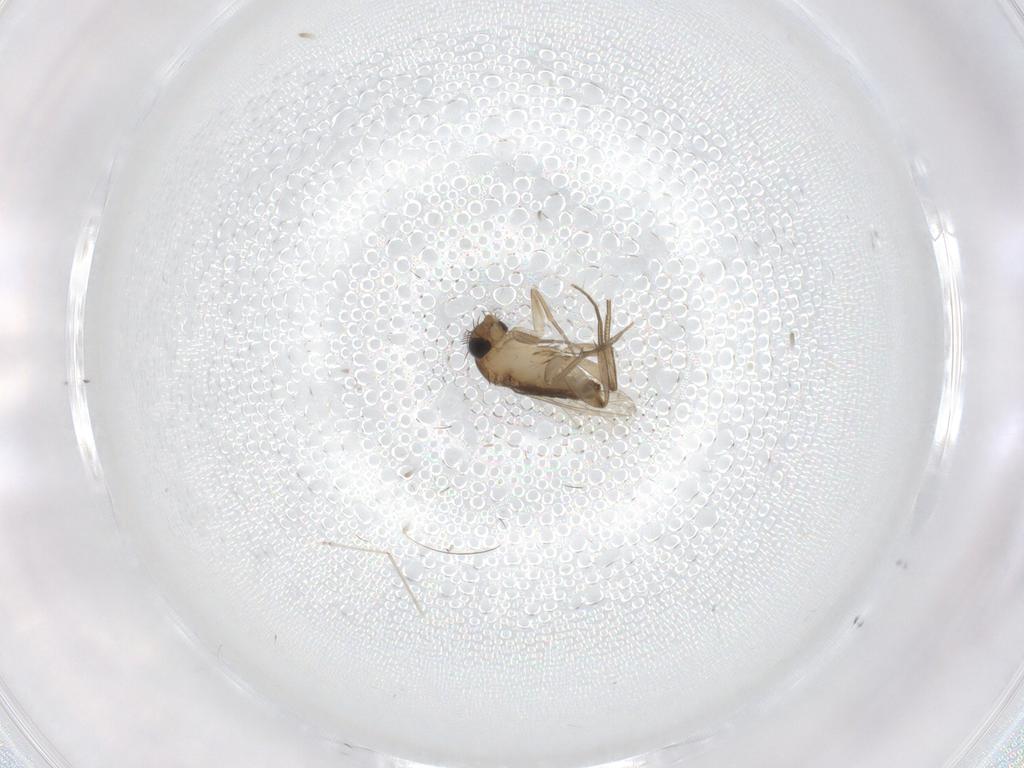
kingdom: Animalia
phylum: Arthropoda
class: Insecta
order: Diptera
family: Phoridae
